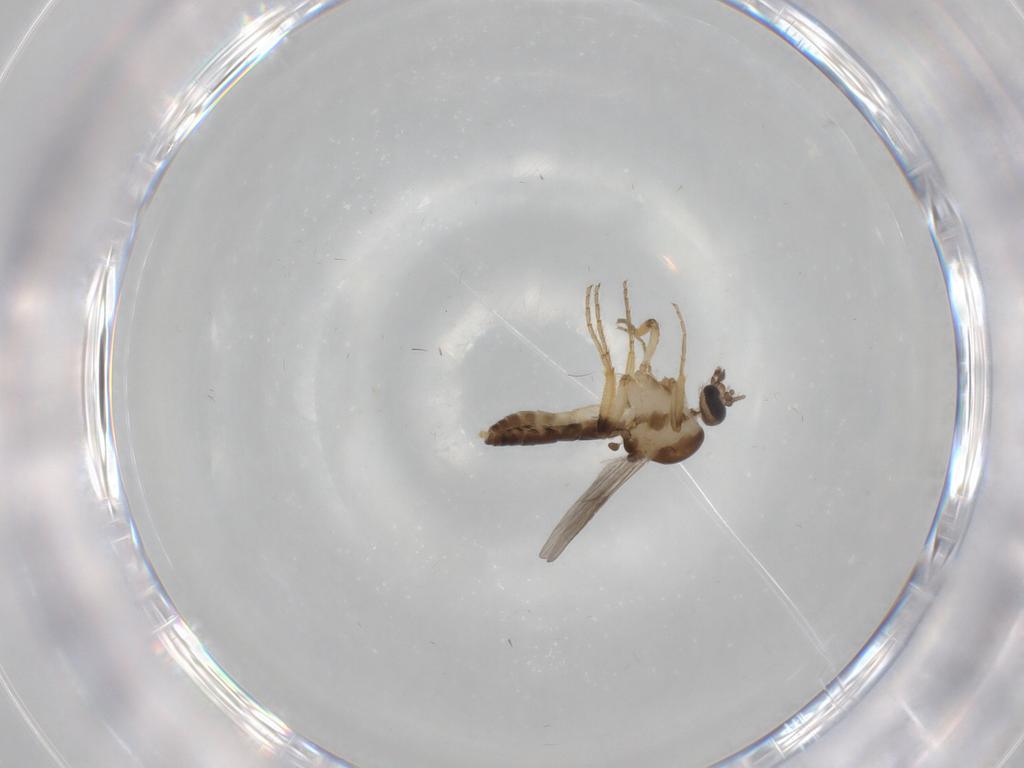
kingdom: Animalia
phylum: Arthropoda
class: Insecta
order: Diptera
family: Ceratopogonidae
